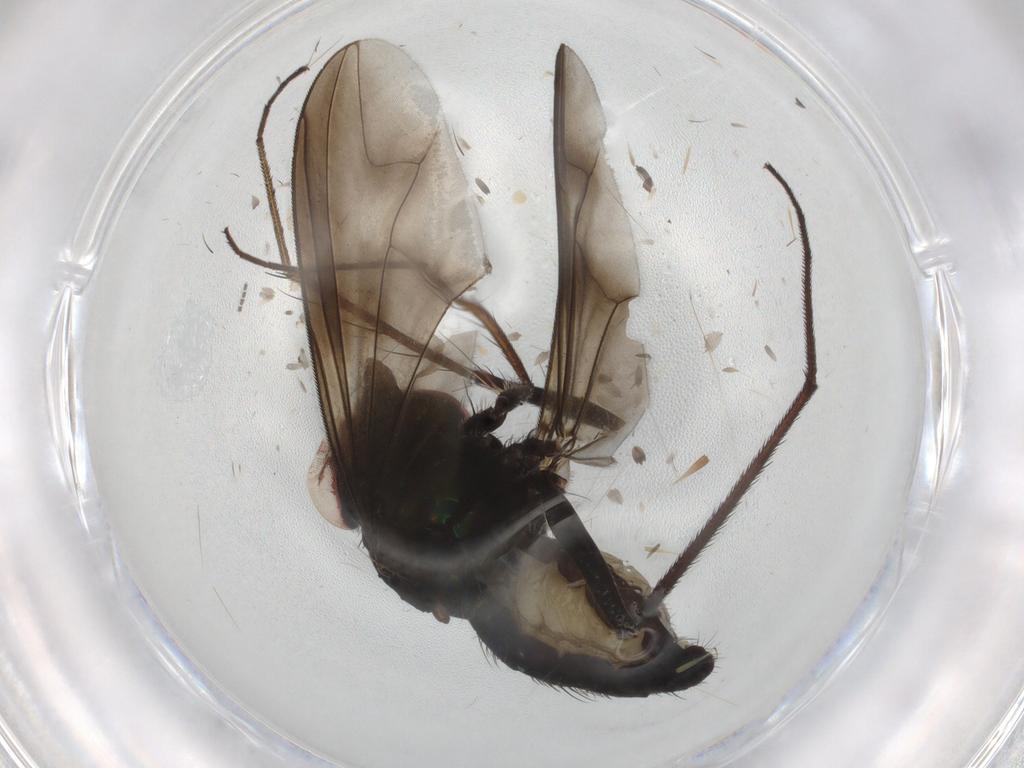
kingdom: Animalia
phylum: Arthropoda
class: Insecta
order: Diptera
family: Dolichopodidae
